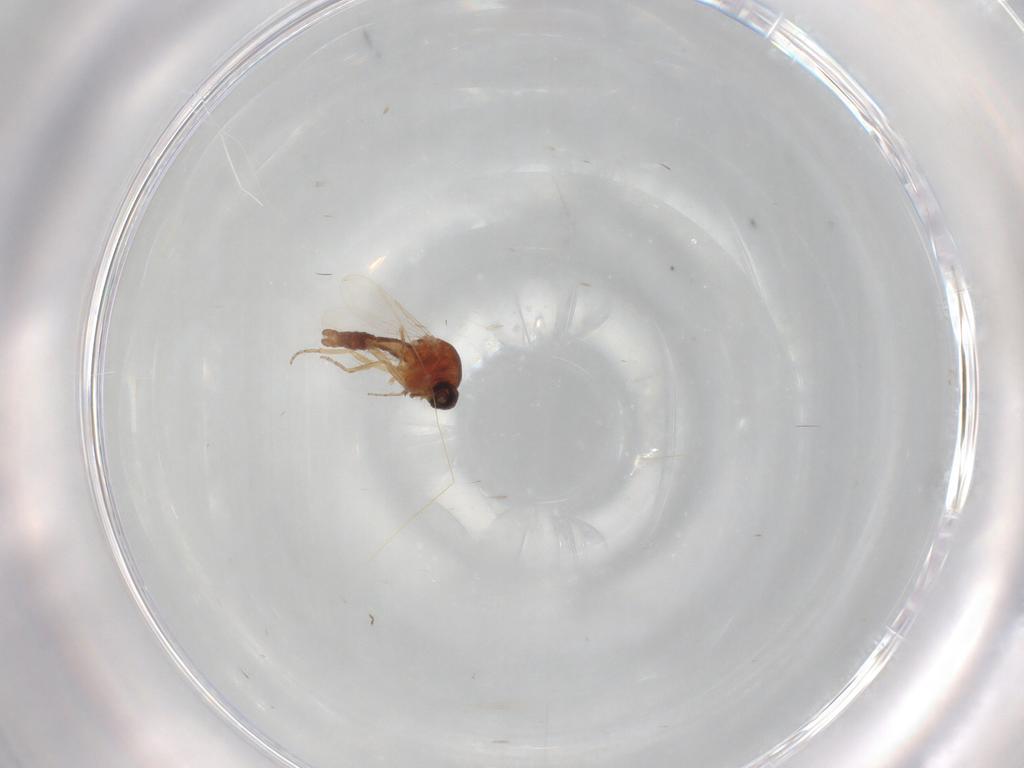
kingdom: Animalia
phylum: Arthropoda
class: Insecta
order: Diptera
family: Ceratopogonidae
